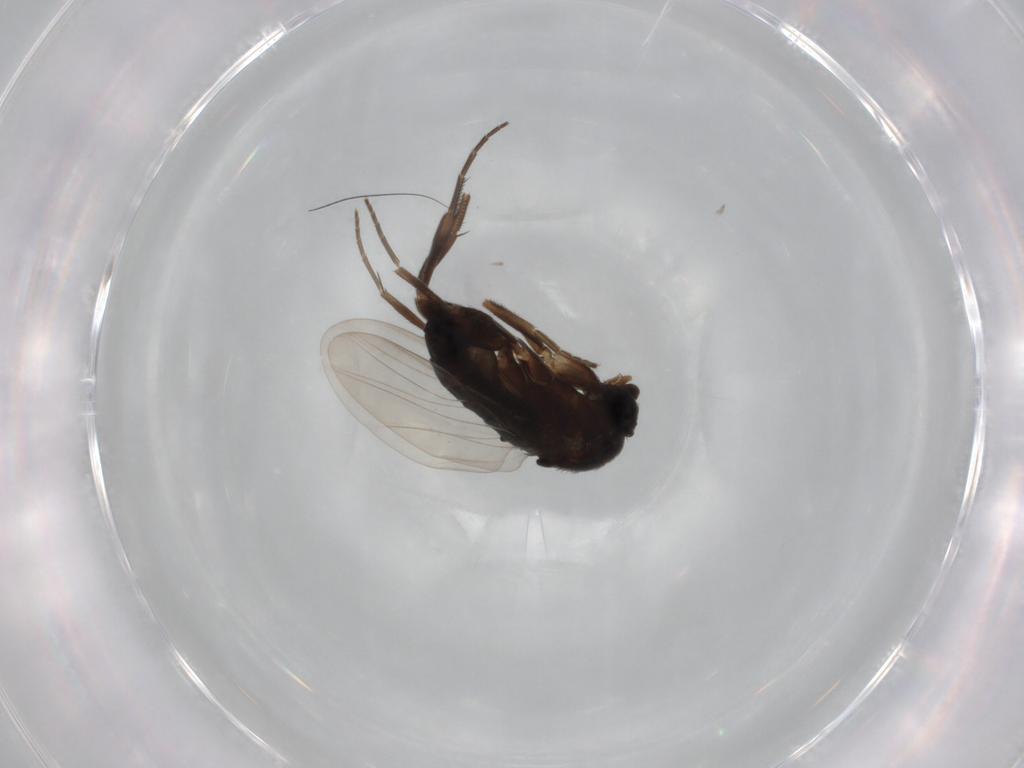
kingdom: Animalia
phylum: Arthropoda
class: Insecta
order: Diptera
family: Phoridae
